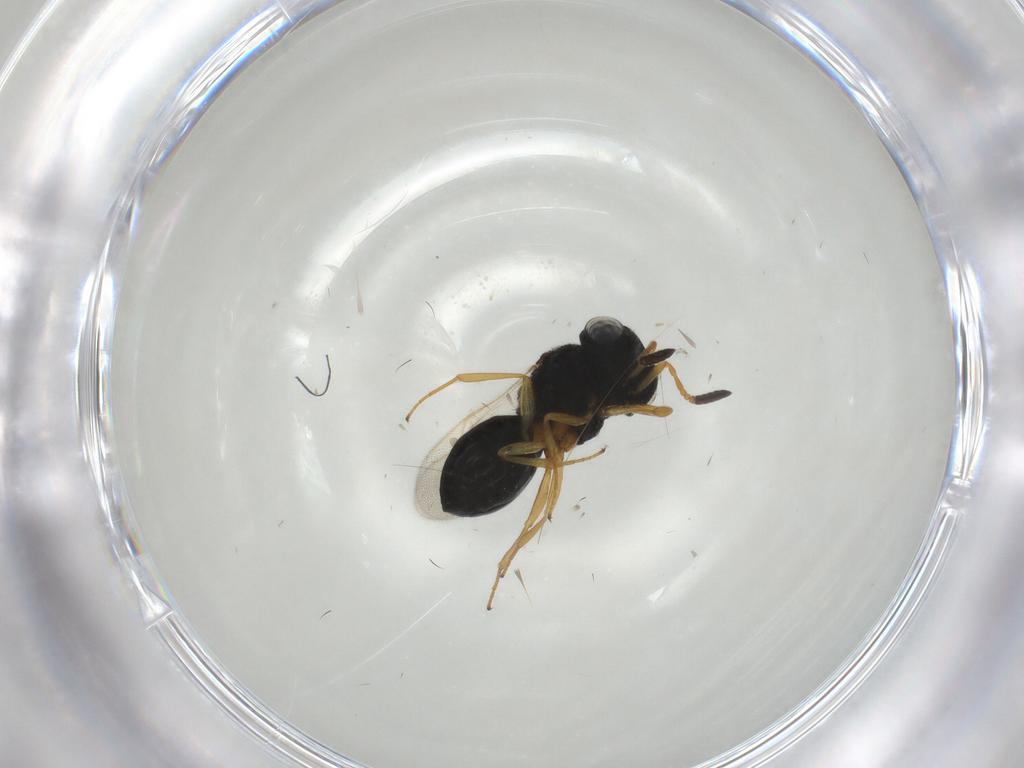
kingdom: Animalia
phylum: Arthropoda
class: Insecta
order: Hymenoptera
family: Scelionidae
